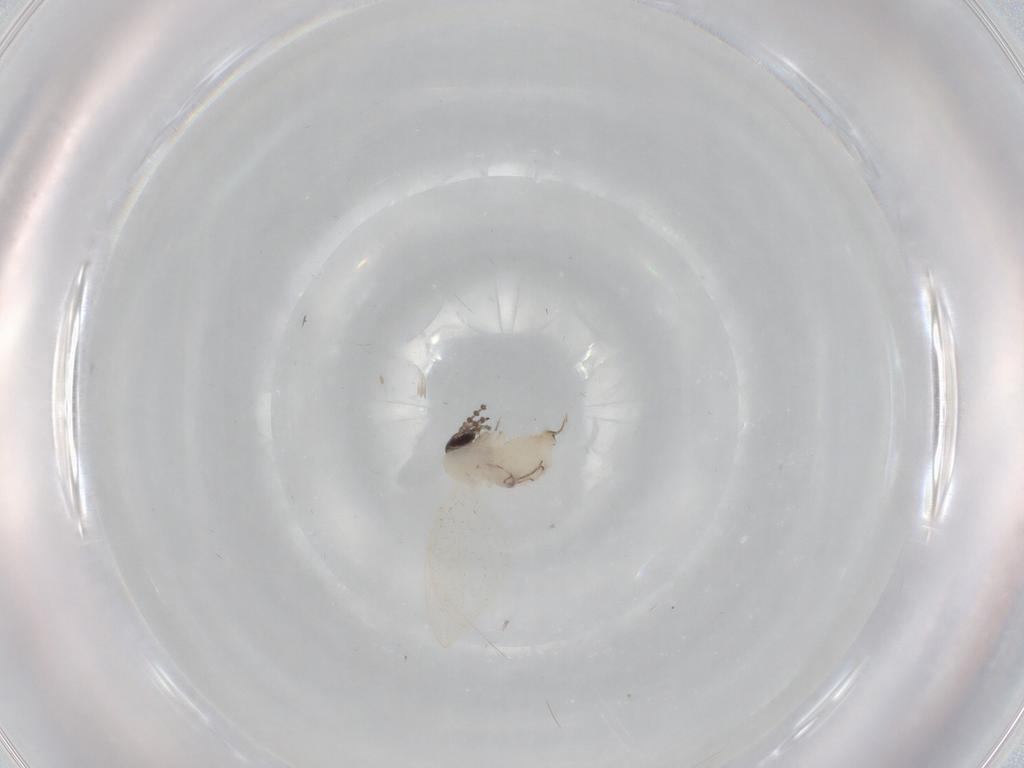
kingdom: Animalia
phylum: Arthropoda
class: Insecta
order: Diptera
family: Psychodidae
